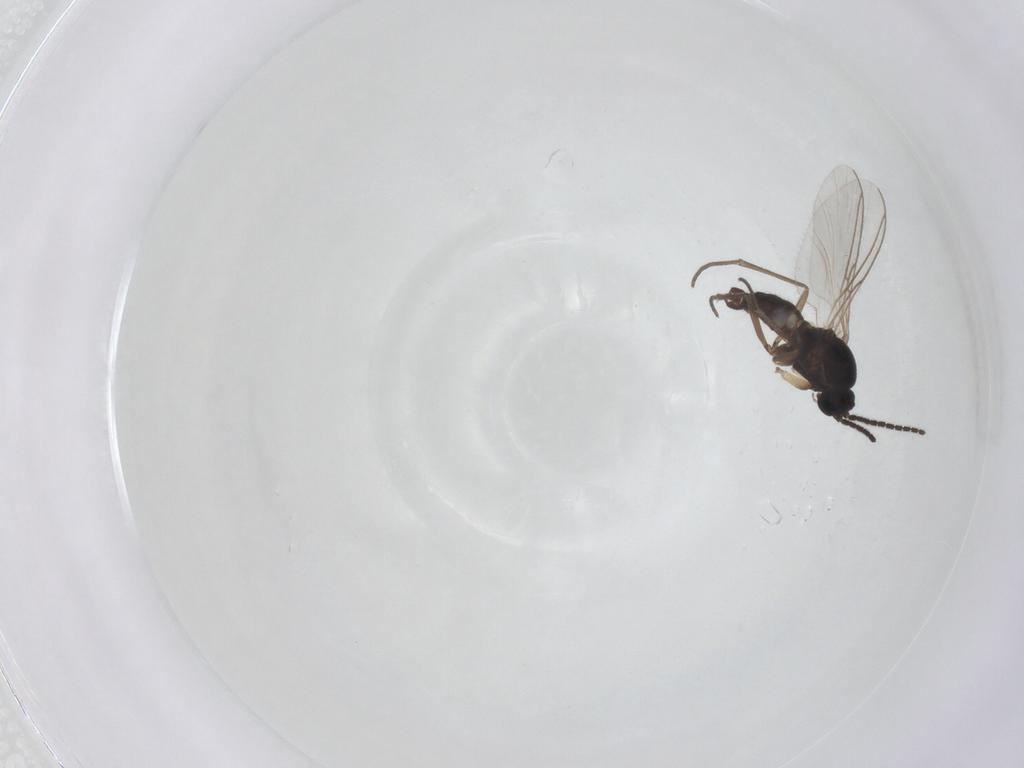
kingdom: Animalia
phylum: Arthropoda
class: Insecta
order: Diptera
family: Sciaridae
